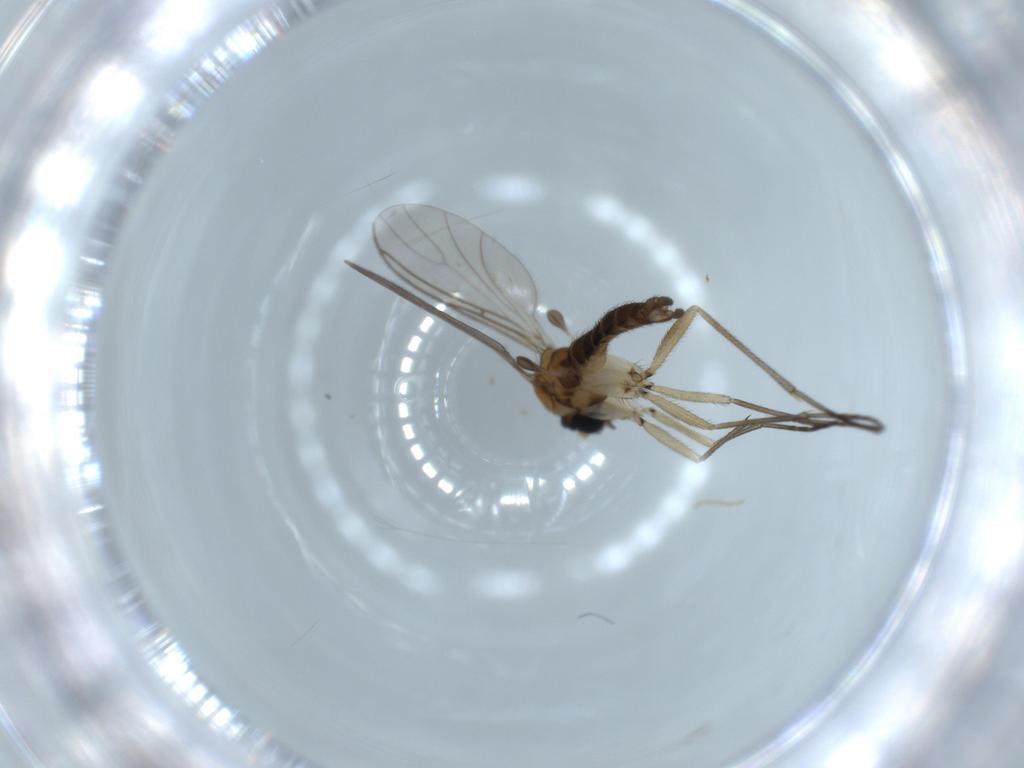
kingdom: Animalia
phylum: Arthropoda
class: Insecta
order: Diptera
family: Sciaridae
